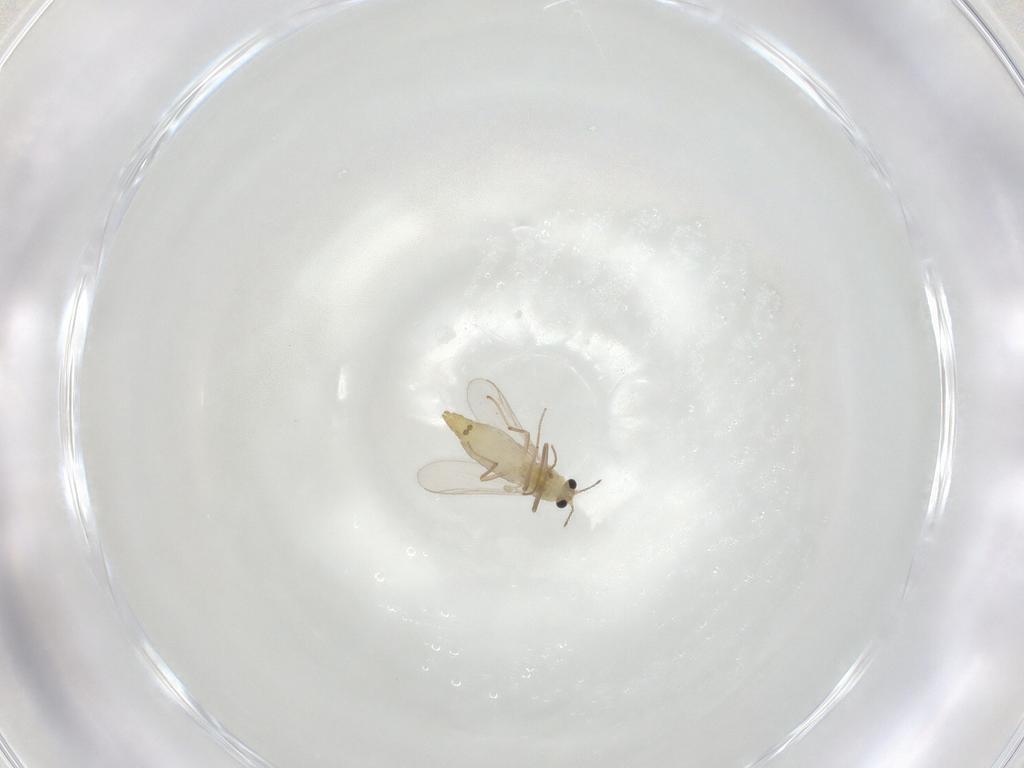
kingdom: Animalia
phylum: Arthropoda
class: Insecta
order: Diptera
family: Chironomidae
